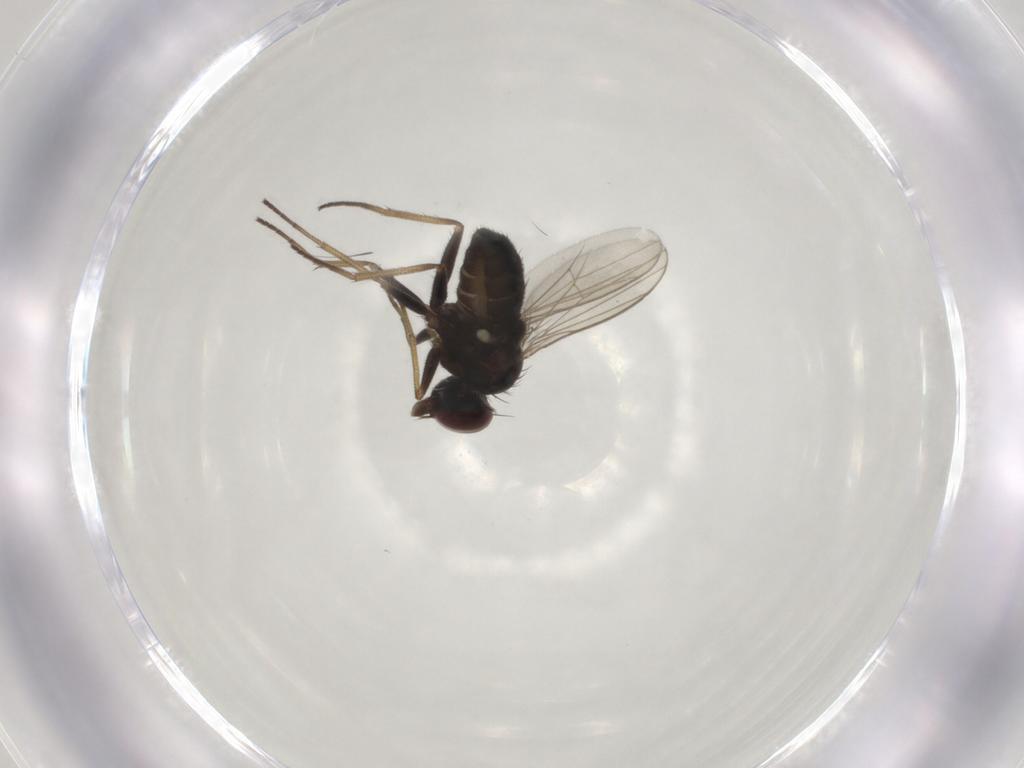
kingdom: Animalia
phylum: Arthropoda
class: Insecta
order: Diptera
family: Dolichopodidae
